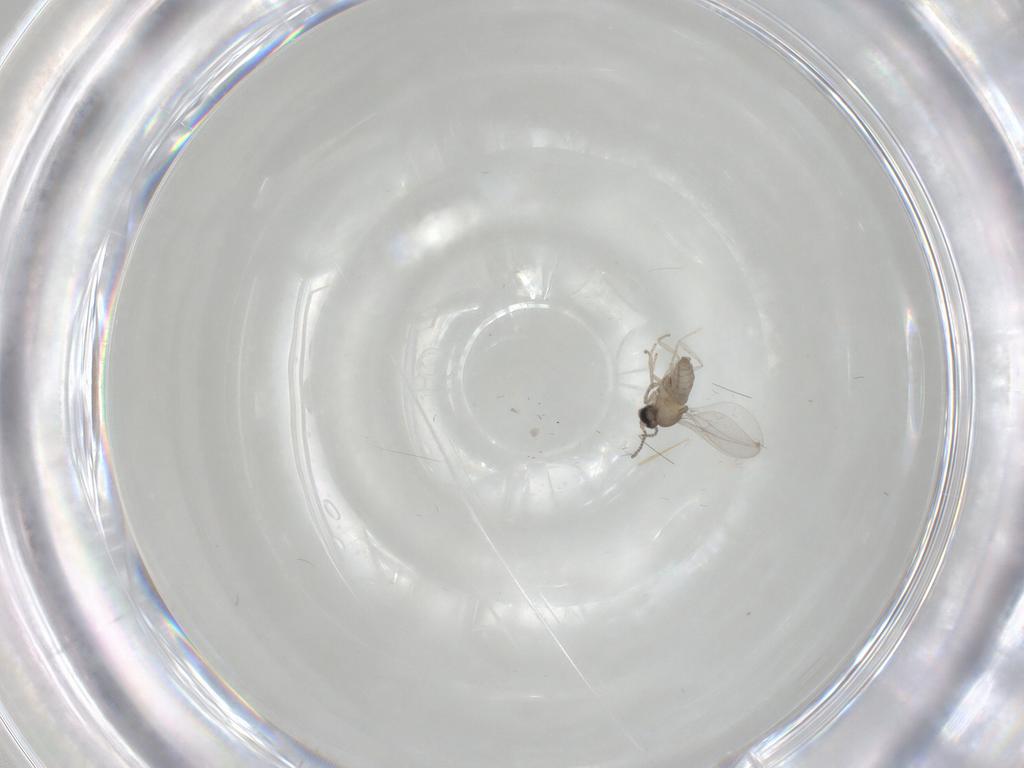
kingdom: Animalia
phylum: Arthropoda
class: Insecta
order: Diptera
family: Cecidomyiidae
